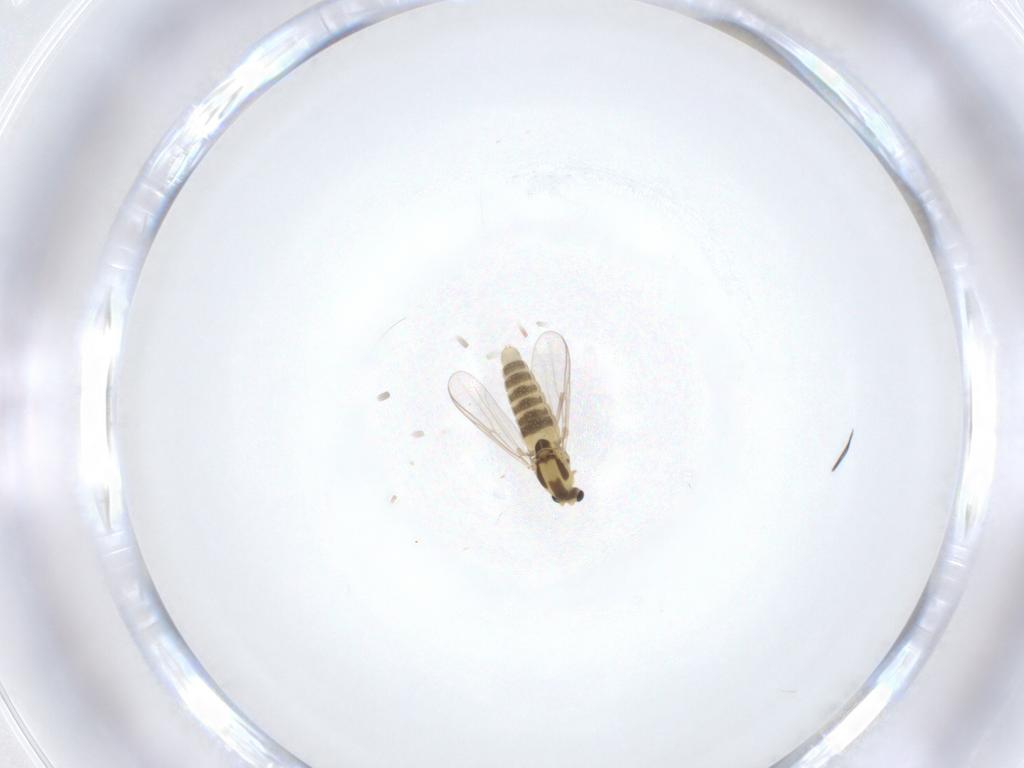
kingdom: Animalia
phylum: Arthropoda
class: Insecta
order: Diptera
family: Chironomidae
